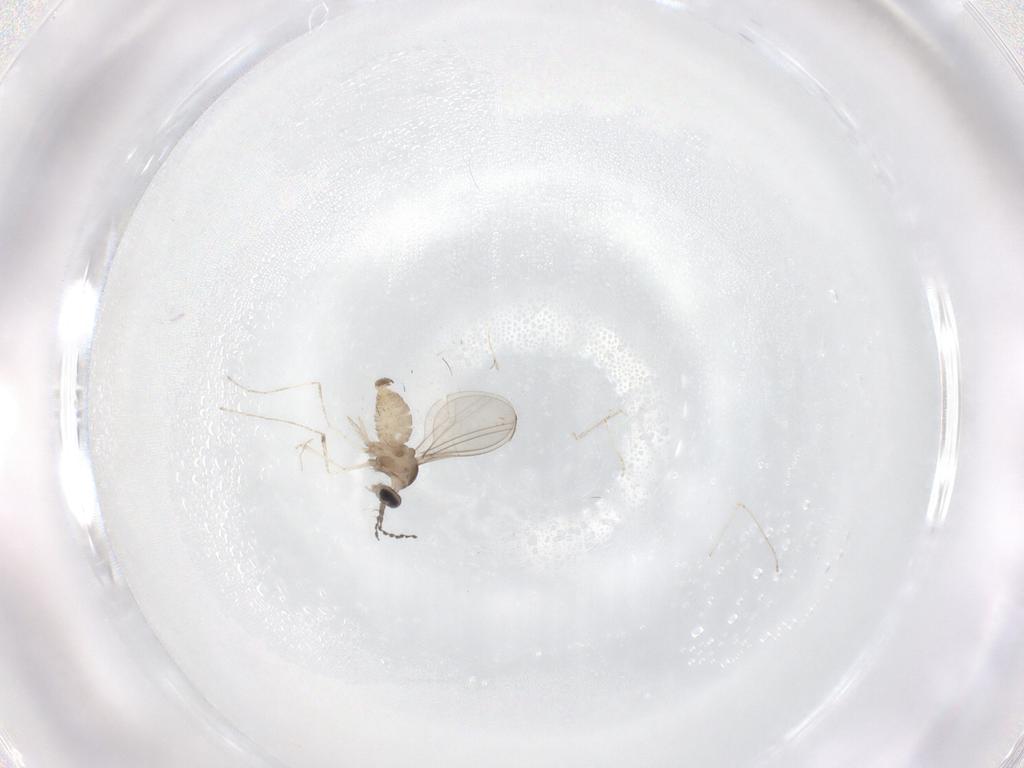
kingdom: Animalia
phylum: Arthropoda
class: Insecta
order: Diptera
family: Cecidomyiidae
